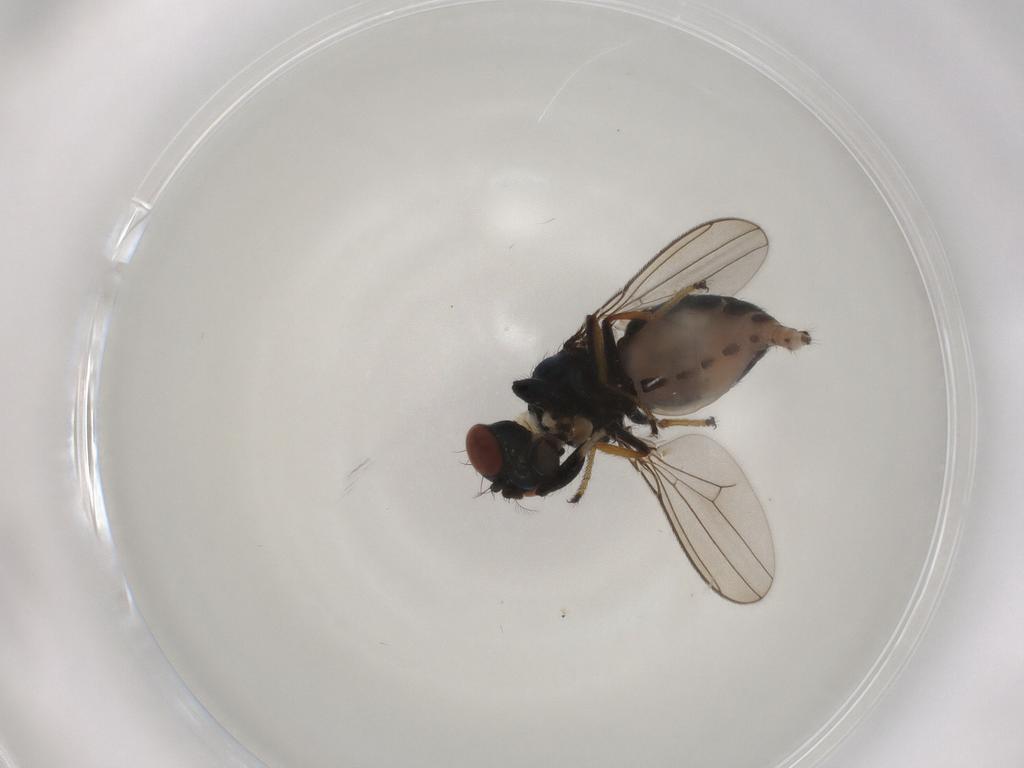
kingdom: Animalia
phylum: Arthropoda
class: Insecta
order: Diptera
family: Ephydridae
